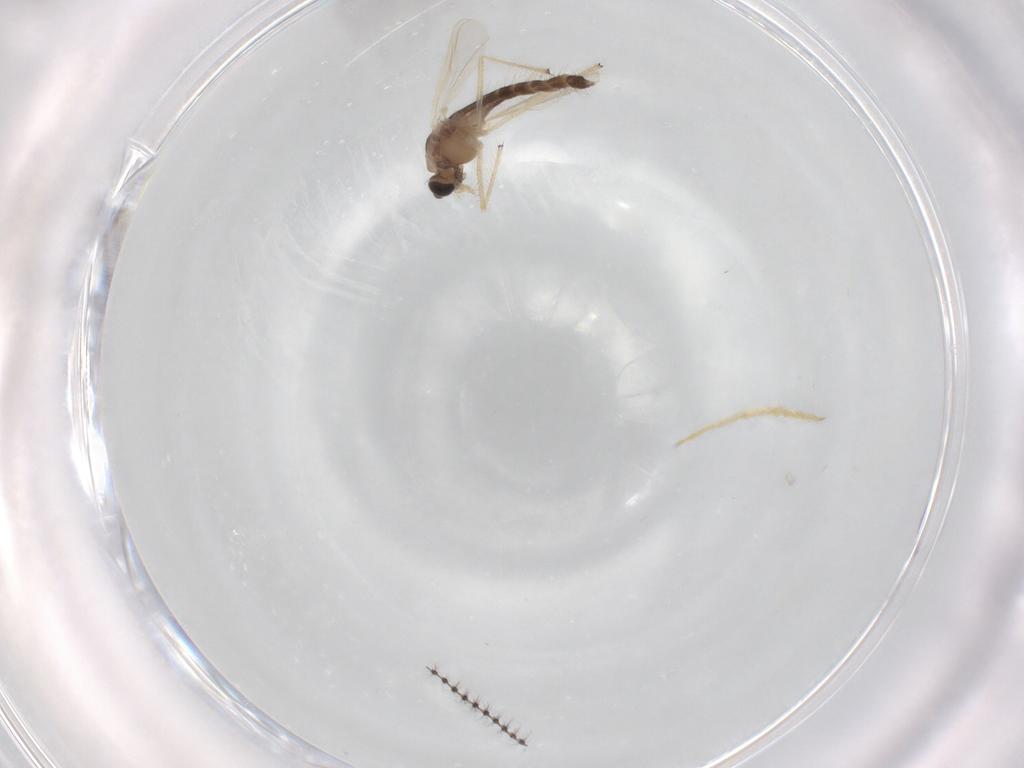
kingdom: Animalia
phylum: Arthropoda
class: Insecta
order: Diptera
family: Chironomidae
